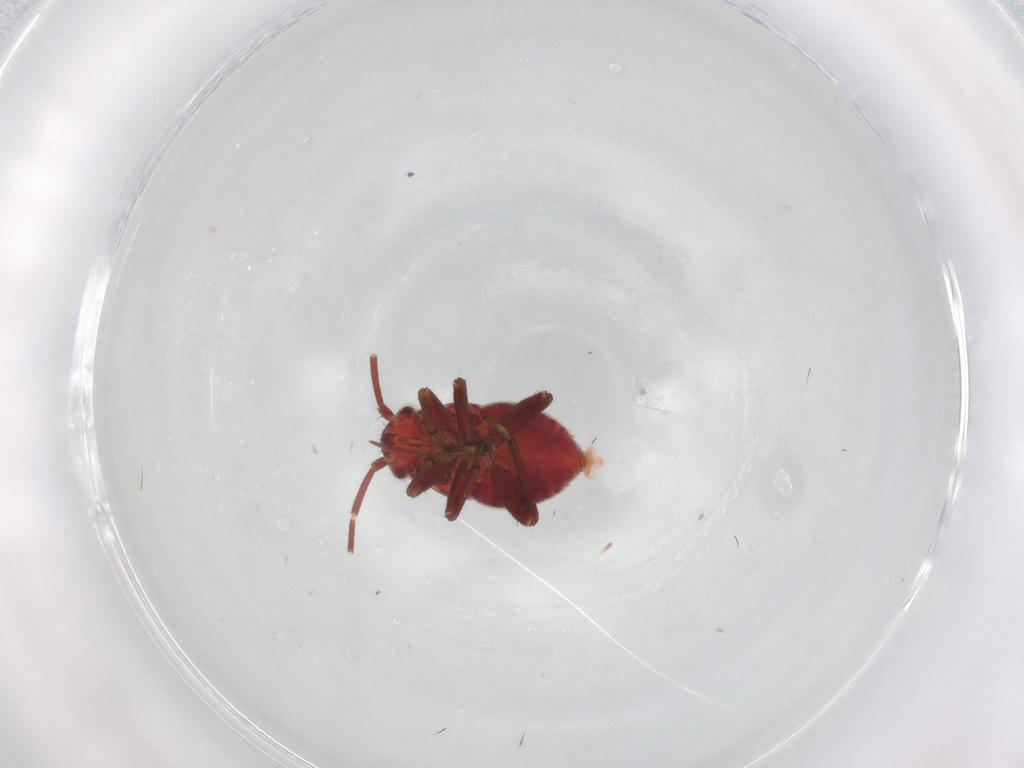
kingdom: Animalia
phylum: Arthropoda
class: Insecta
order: Hemiptera
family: Miridae
